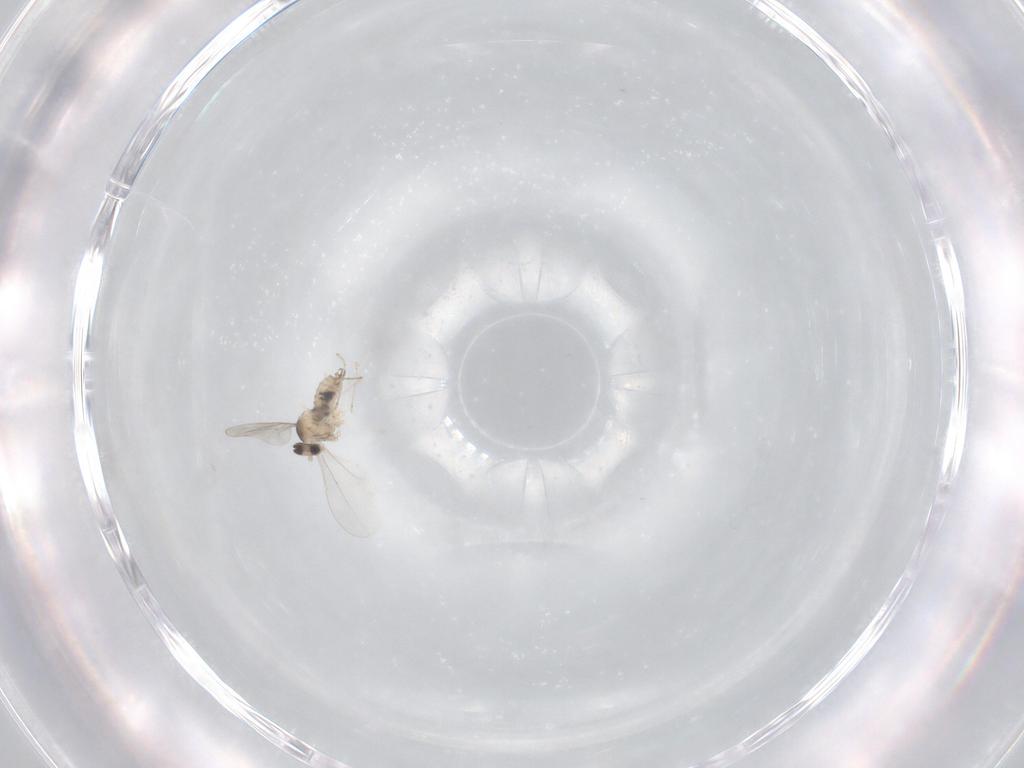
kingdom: Animalia
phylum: Arthropoda
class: Insecta
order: Diptera
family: Cecidomyiidae
